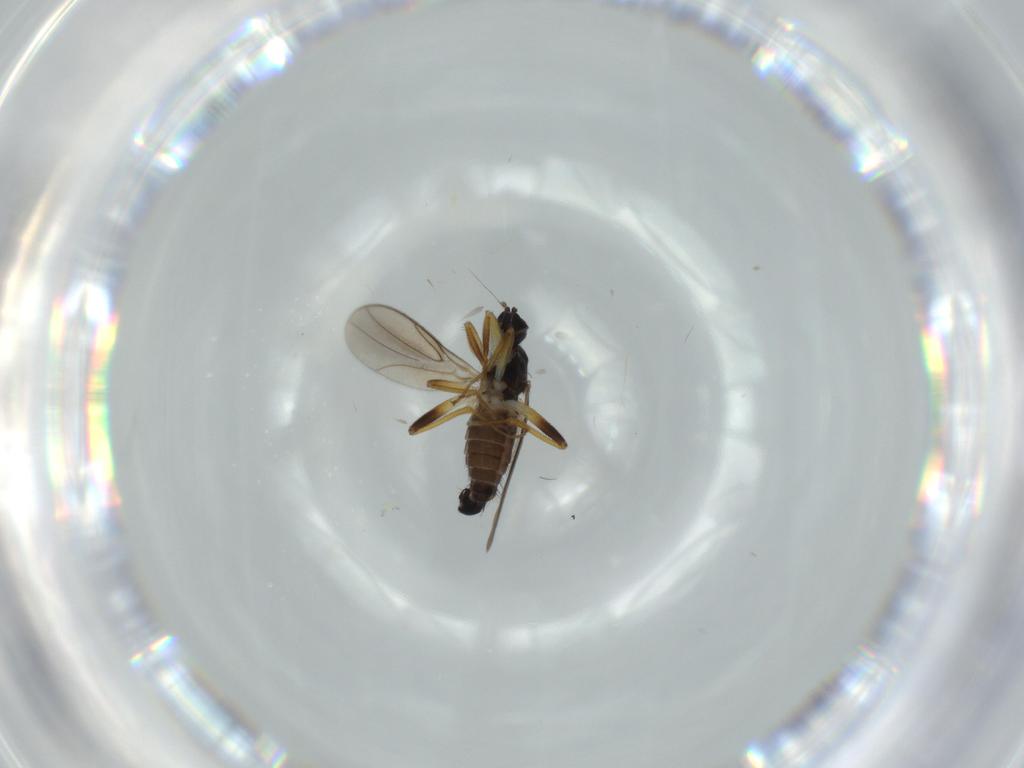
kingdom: Animalia
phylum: Arthropoda
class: Insecta
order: Diptera
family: Hybotidae
